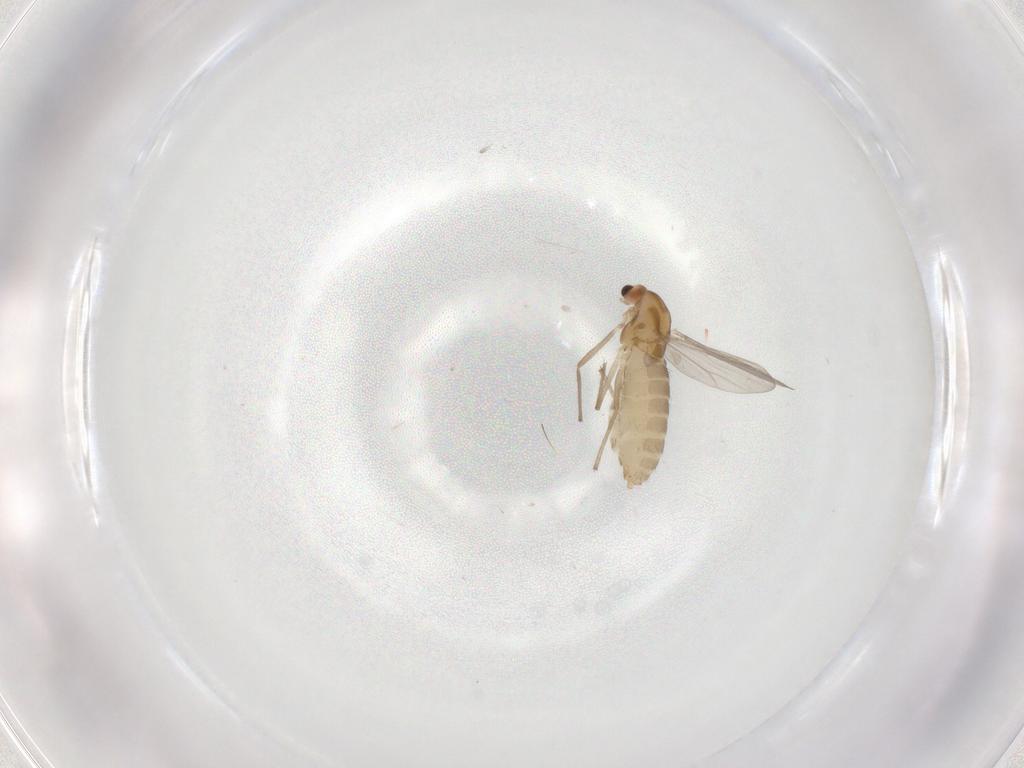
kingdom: Animalia
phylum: Arthropoda
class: Insecta
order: Diptera
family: Chironomidae
